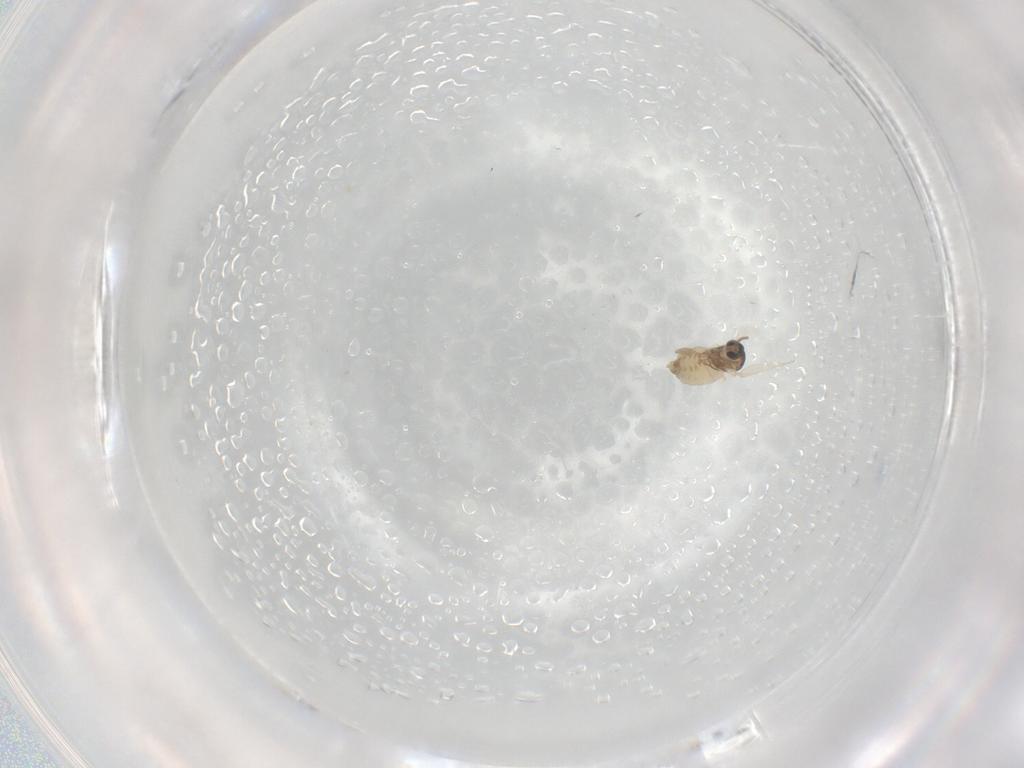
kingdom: Animalia
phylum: Arthropoda
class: Insecta
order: Diptera
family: Cecidomyiidae
